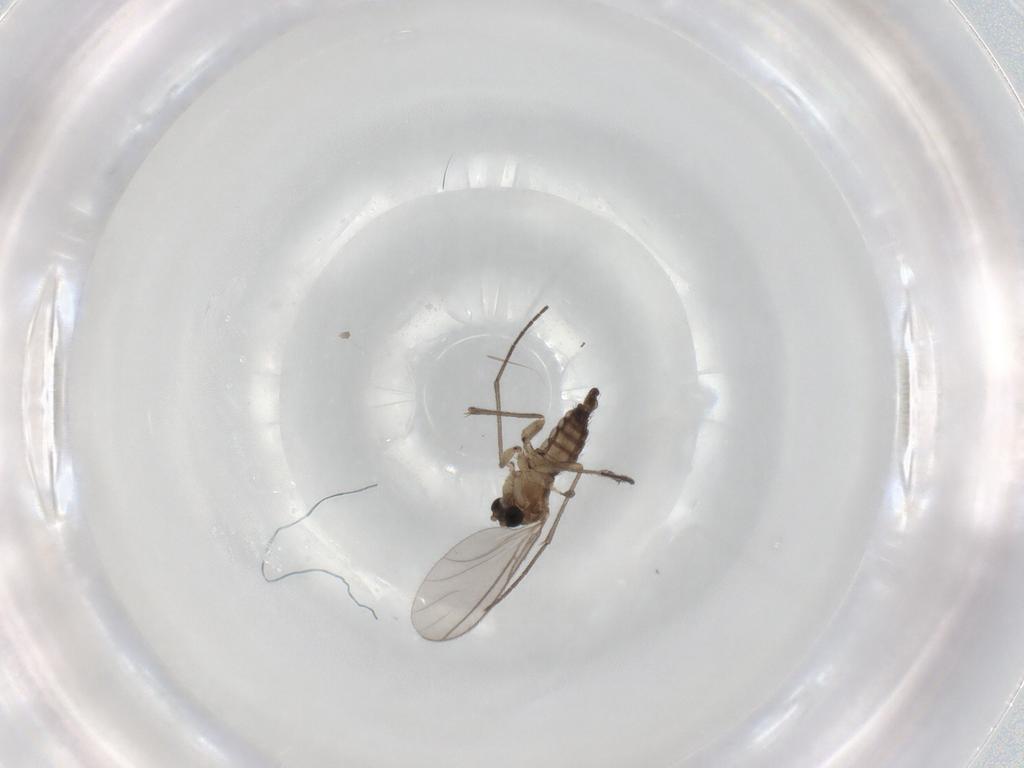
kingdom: Animalia
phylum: Arthropoda
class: Insecta
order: Diptera
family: Sciaridae
